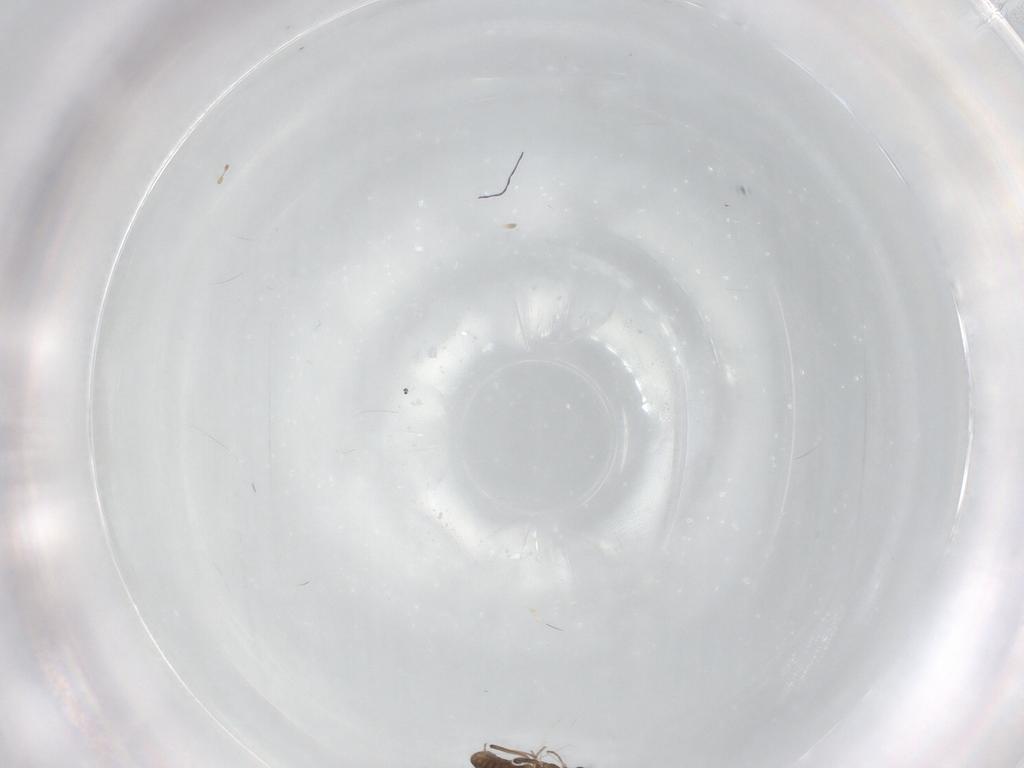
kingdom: Animalia
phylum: Arthropoda
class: Insecta
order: Diptera
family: Chironomidae
